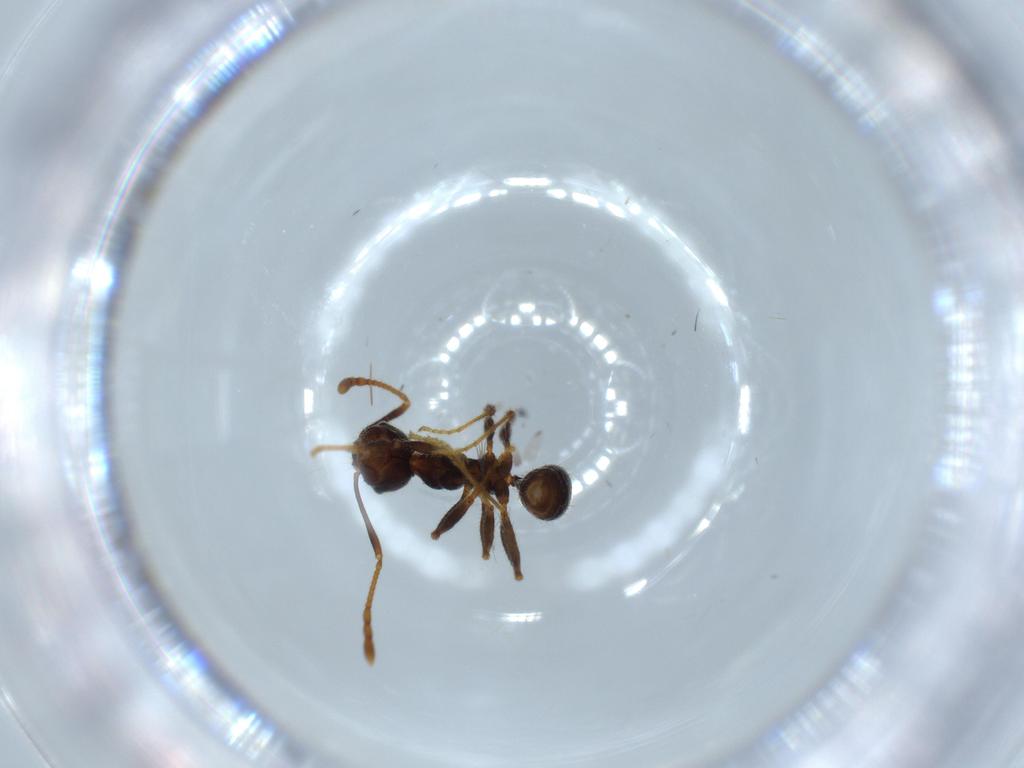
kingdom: Animalia
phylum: Arthropoda
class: Insecta
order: Hymenoptera
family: Formicidae
